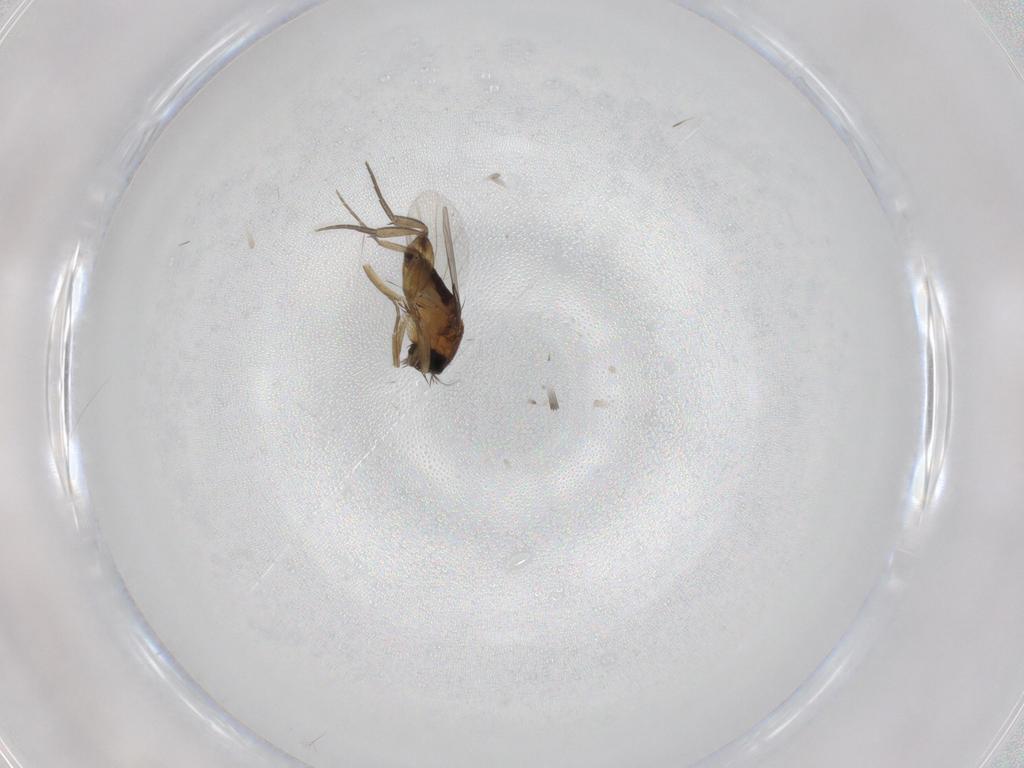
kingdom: Animalia
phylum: Arthropoda
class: Insecta
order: Diptera
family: Phoridae
